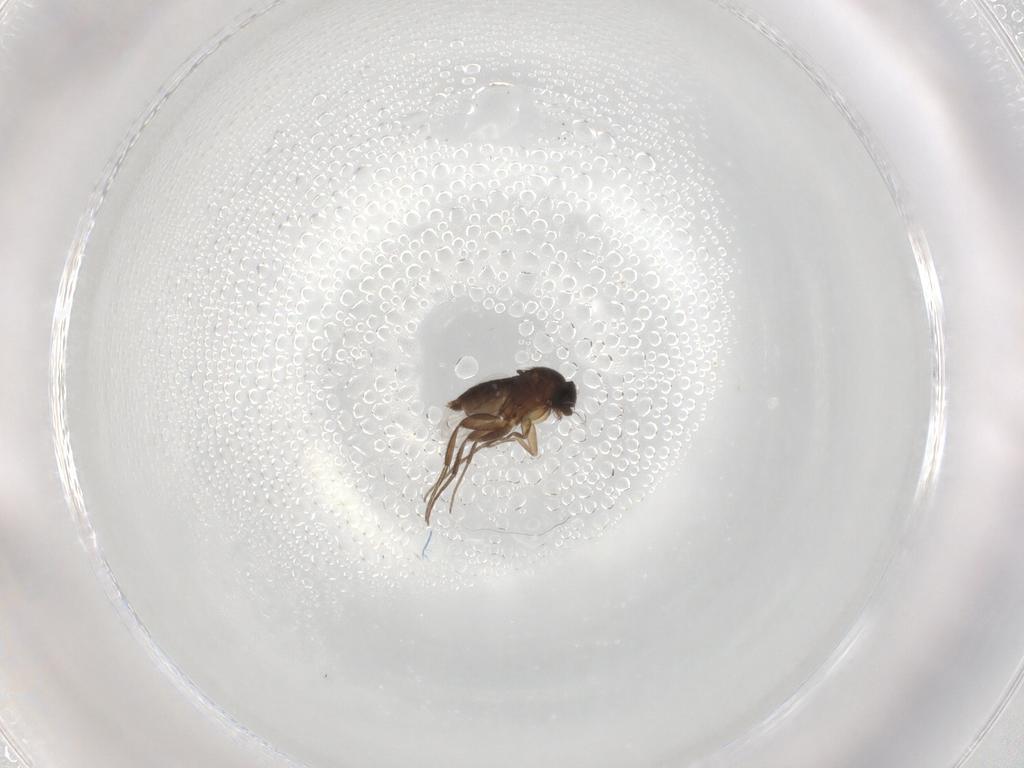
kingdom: Animalia
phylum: Arthropoda
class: Insecta
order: Diptera
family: Phoridae
